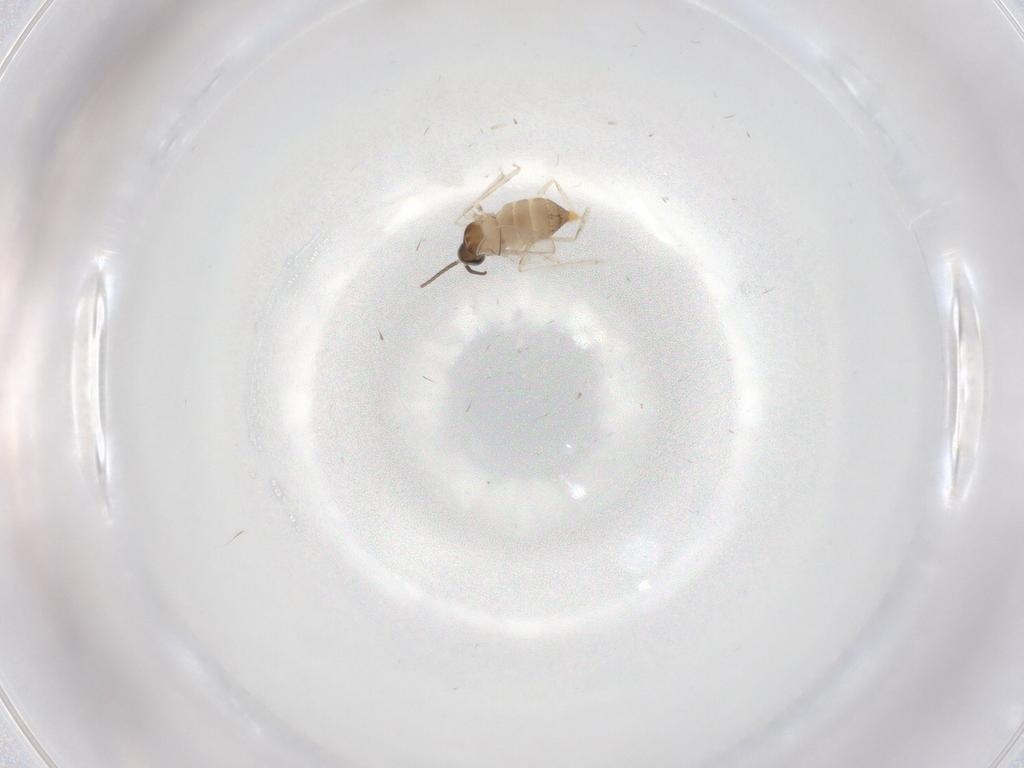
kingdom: Animalia
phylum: Arthropoda
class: Insecta
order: Diptera
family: Cecidomyiidae
